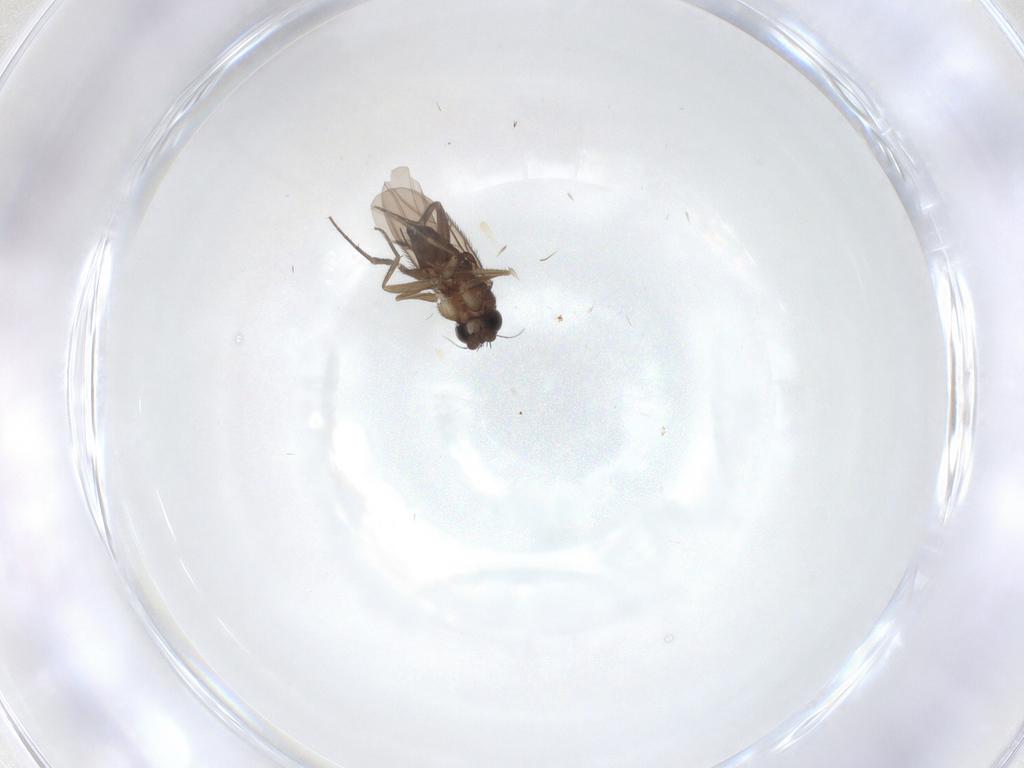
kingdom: Animalia
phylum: Arthropoda
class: Insecta
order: Diptera
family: Phoridae
